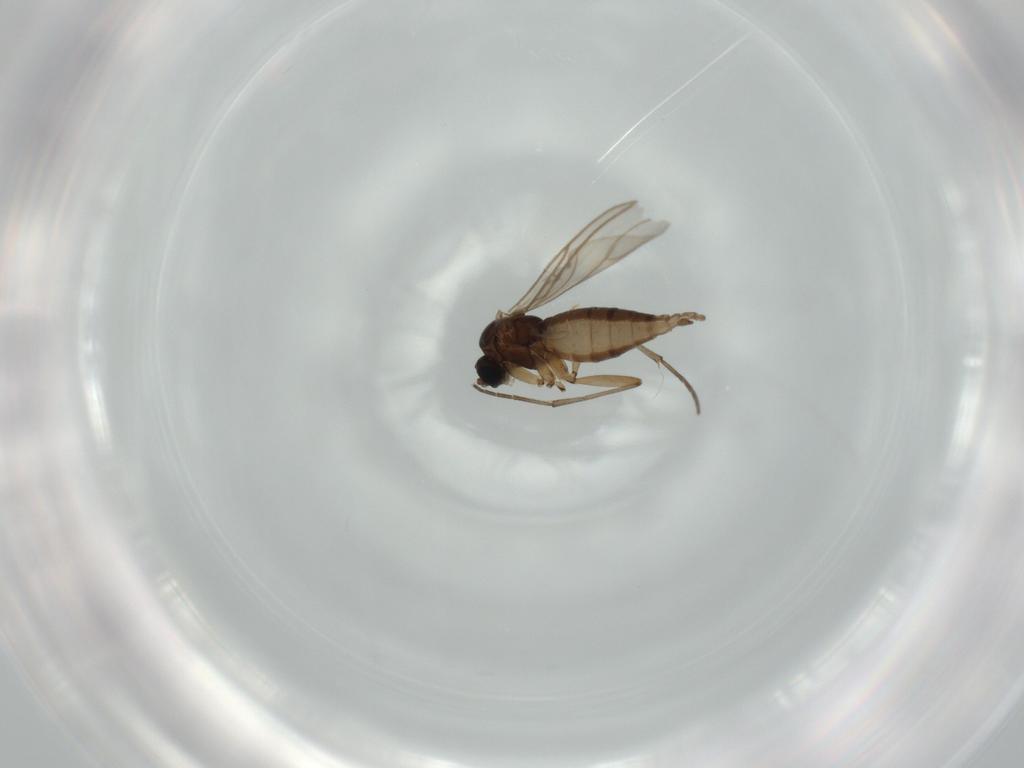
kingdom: Animalia
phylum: Arthropoda
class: Insecta
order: Diptera
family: Sciaridae
